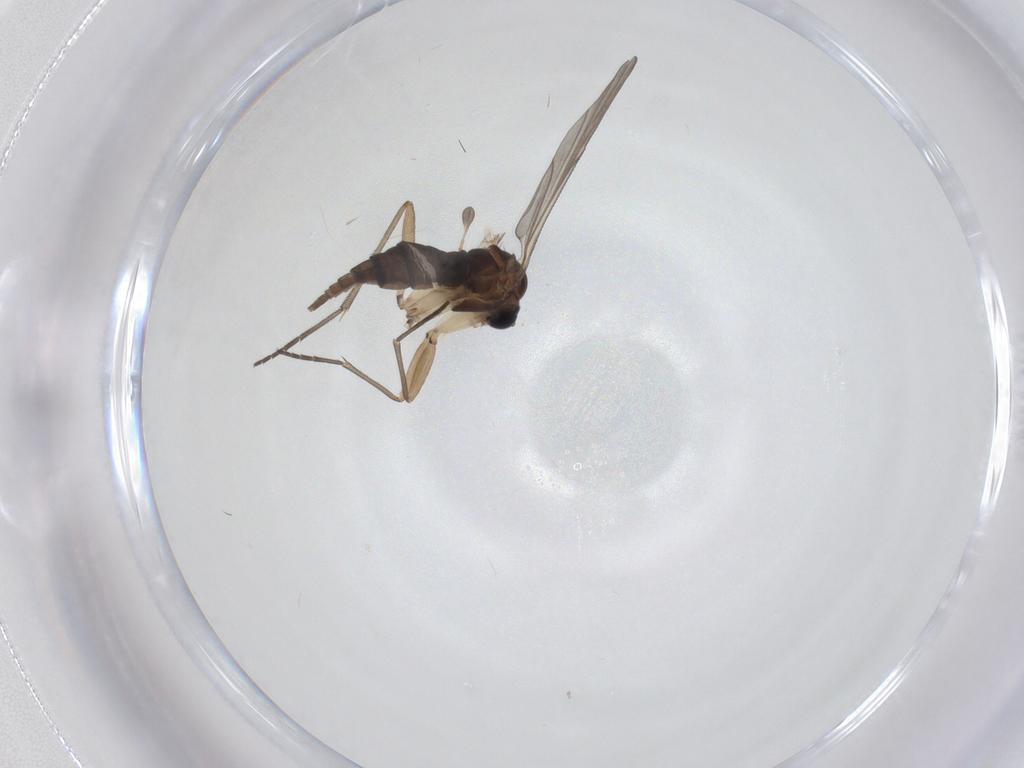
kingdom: Animalia
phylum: Arthropoda
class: Insecta
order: Diptera
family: Sciaridae
